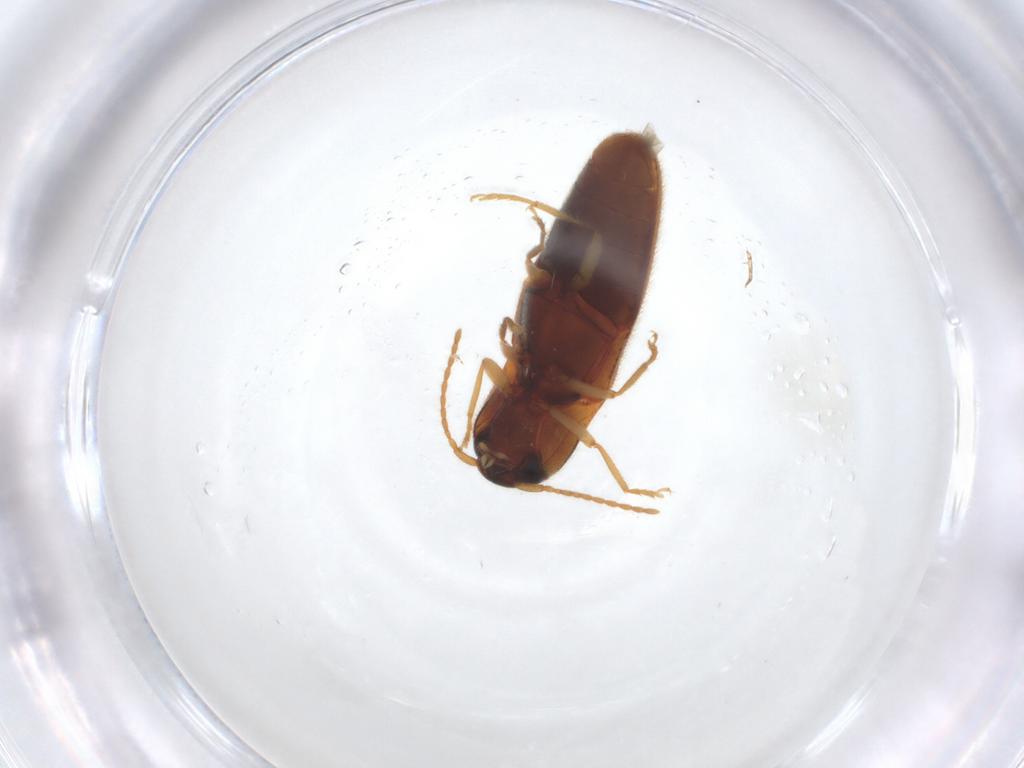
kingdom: Animalia
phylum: Arthropoda
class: Insecta
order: Coleoptera
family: Elateridae
